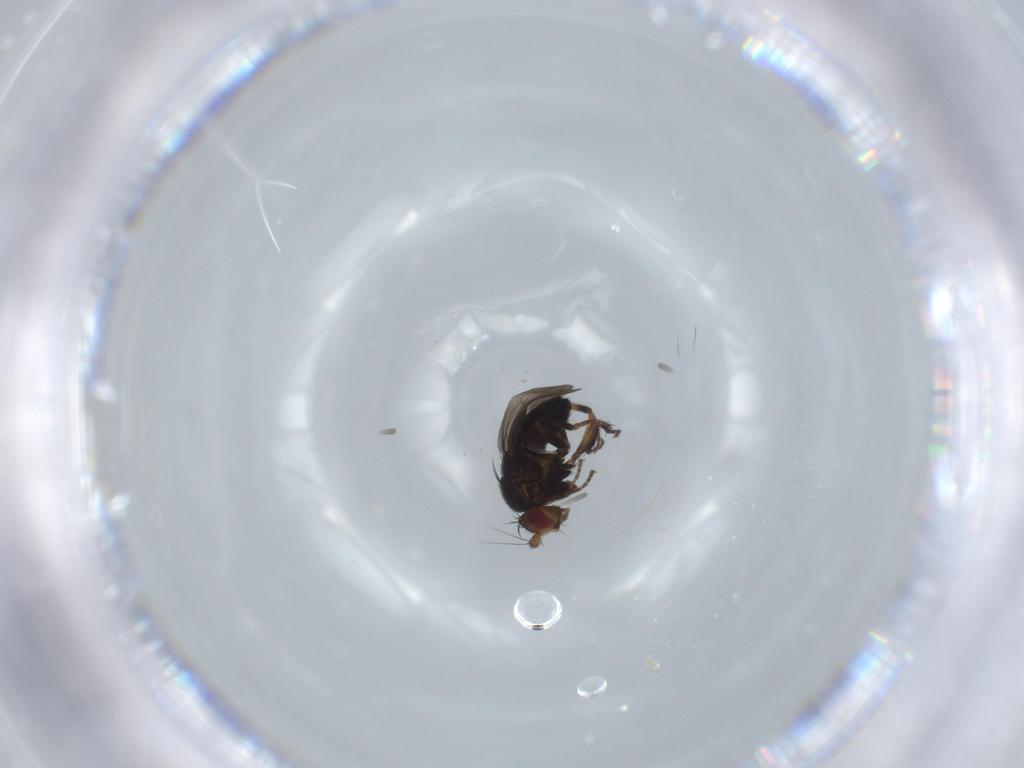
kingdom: Animalia
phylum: Arthropoda
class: Insecta
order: Diptera
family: Sphaeroceridae
